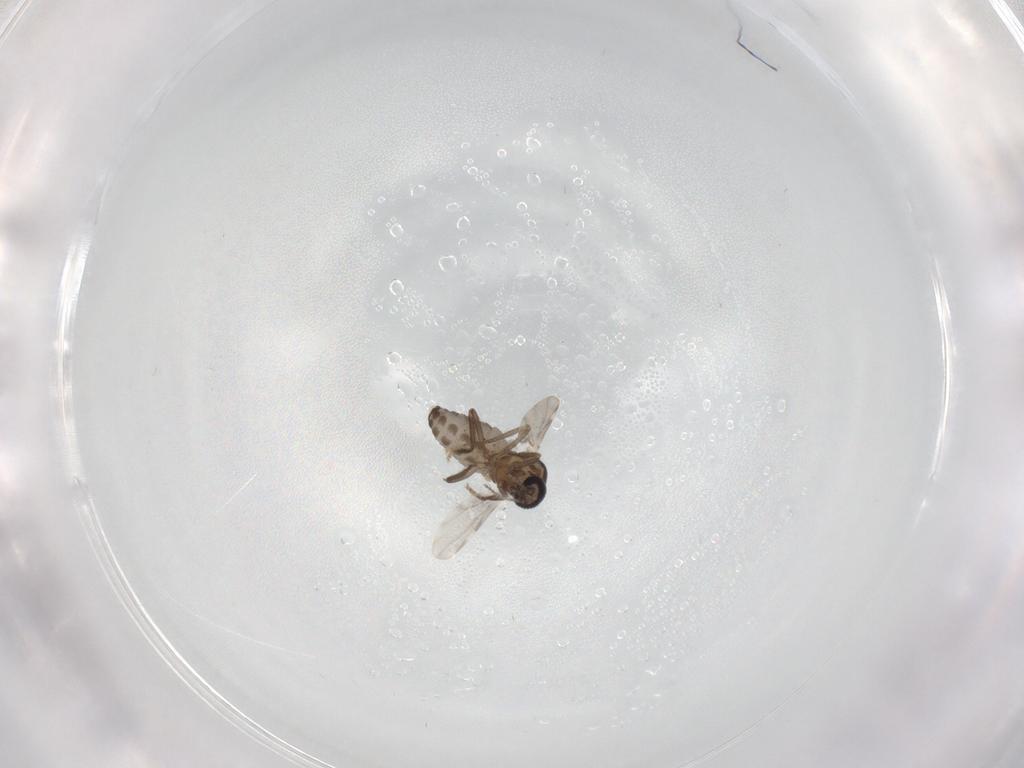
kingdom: Animalia
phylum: Arthropoda
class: Insecta
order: Diptera
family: Ceratopogonidae
